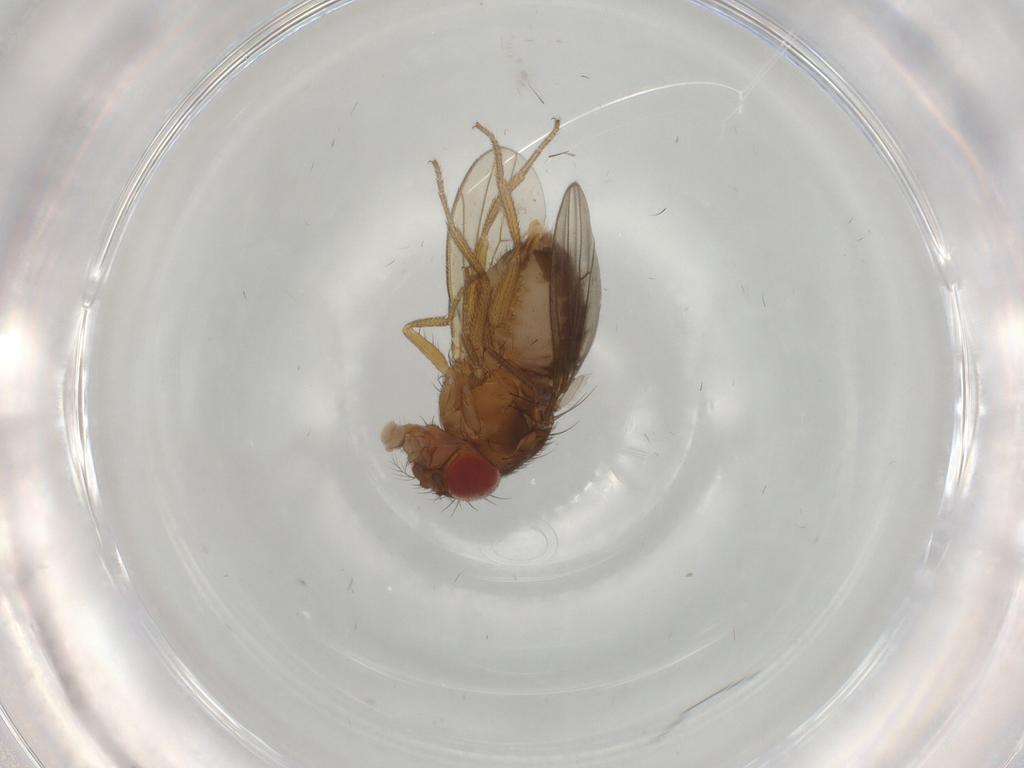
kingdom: Animalia
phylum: Arthropoda
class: Insecta
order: Diptera
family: Drosophilidae
